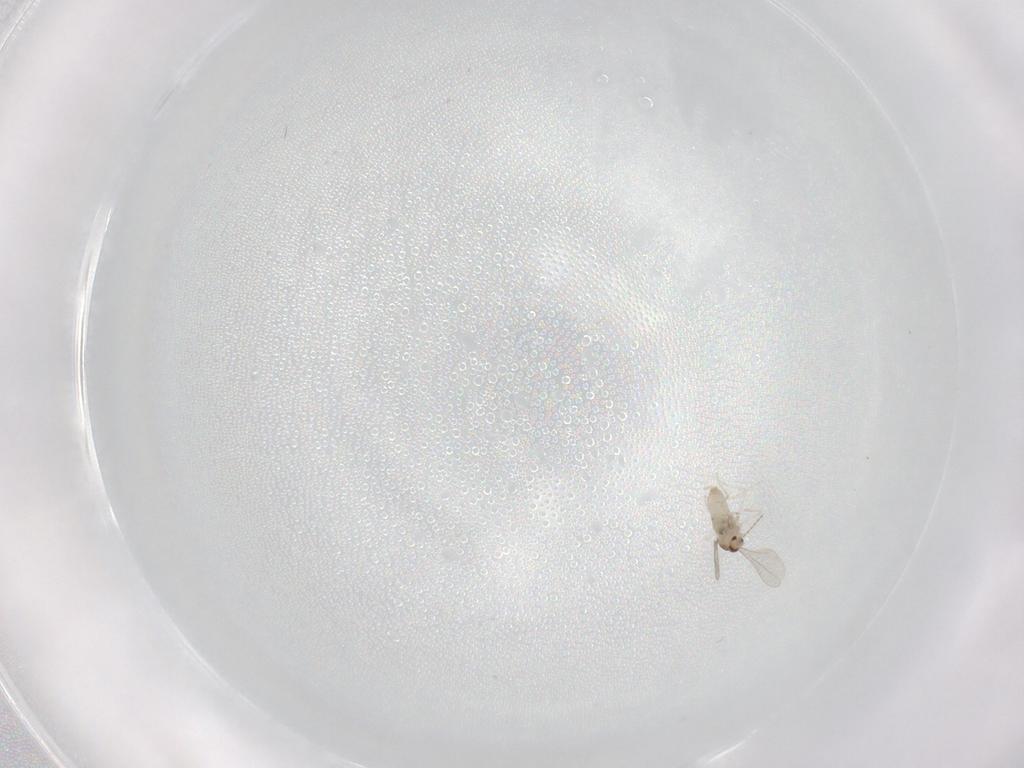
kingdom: Animalia
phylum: Arthropoda
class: Insecta
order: Diptera
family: Cecidomyiidae
